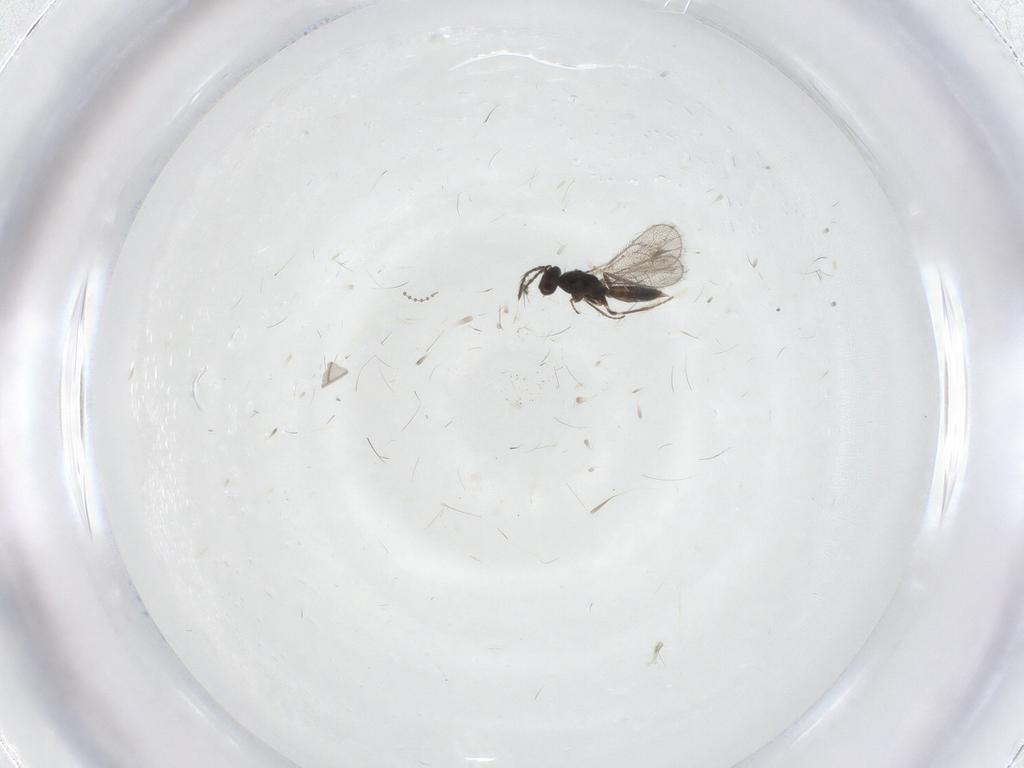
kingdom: Animalia
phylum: Arthropoda
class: Insecta
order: Hymenoptera
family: Eulophidae
